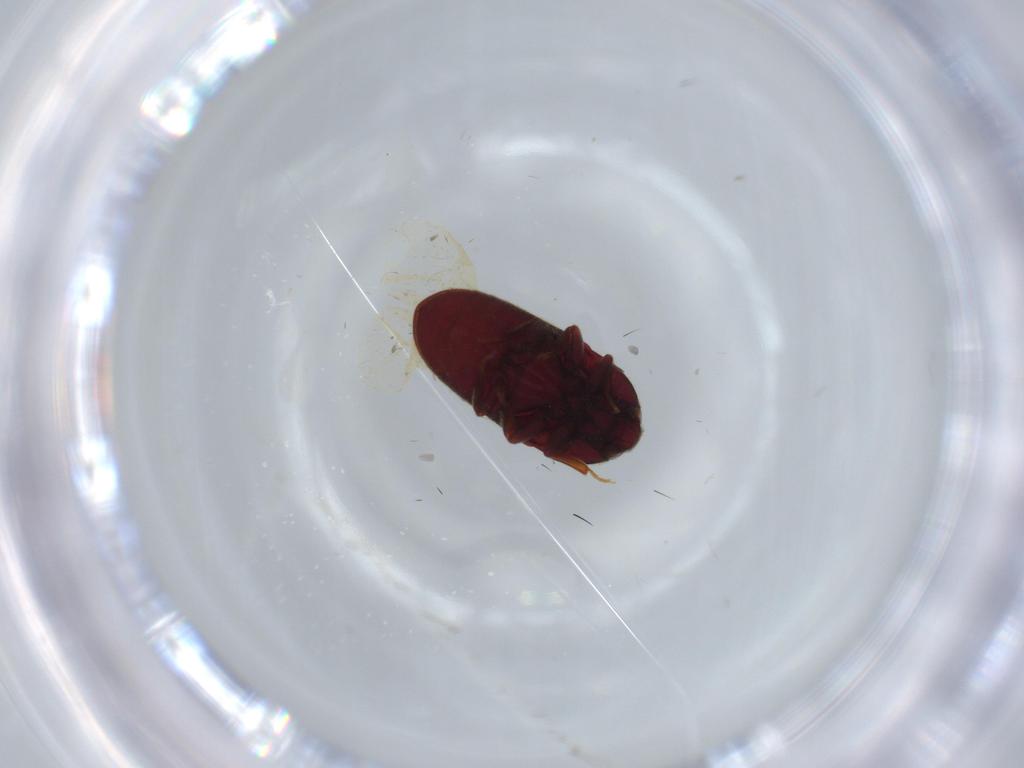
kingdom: Animalia
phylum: Arthropoda
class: Insecta
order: Coleoptera
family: Throscidae
